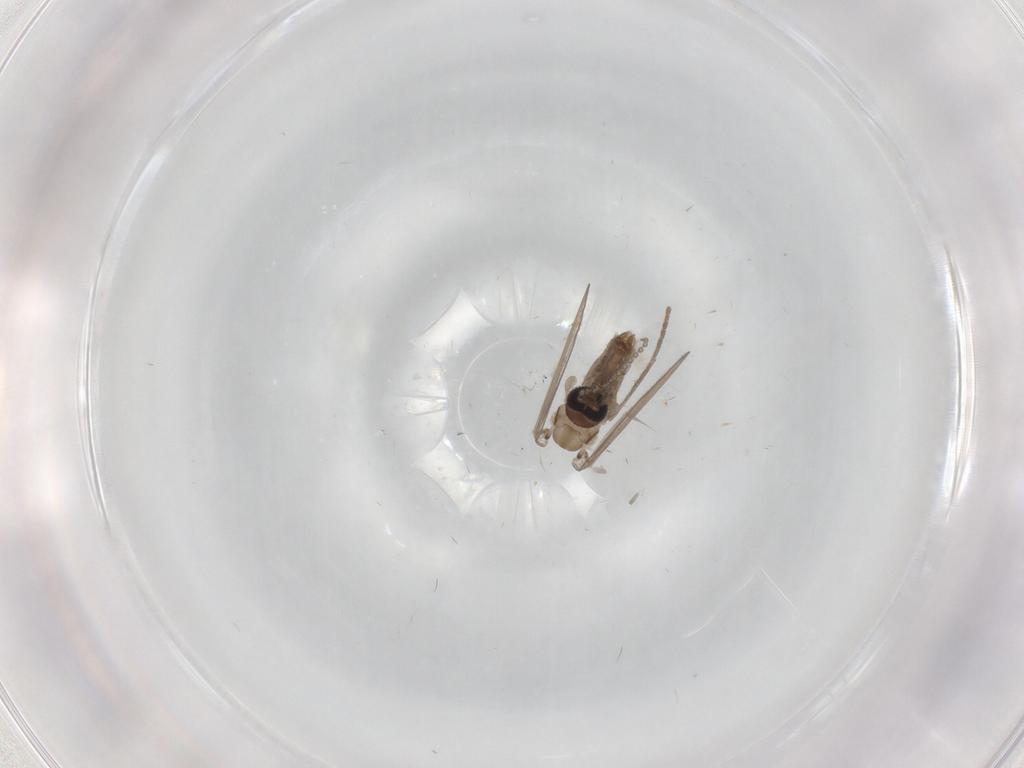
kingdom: Animalia
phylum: Arthropoda
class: Insecta
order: Diptera
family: Psychodidae
